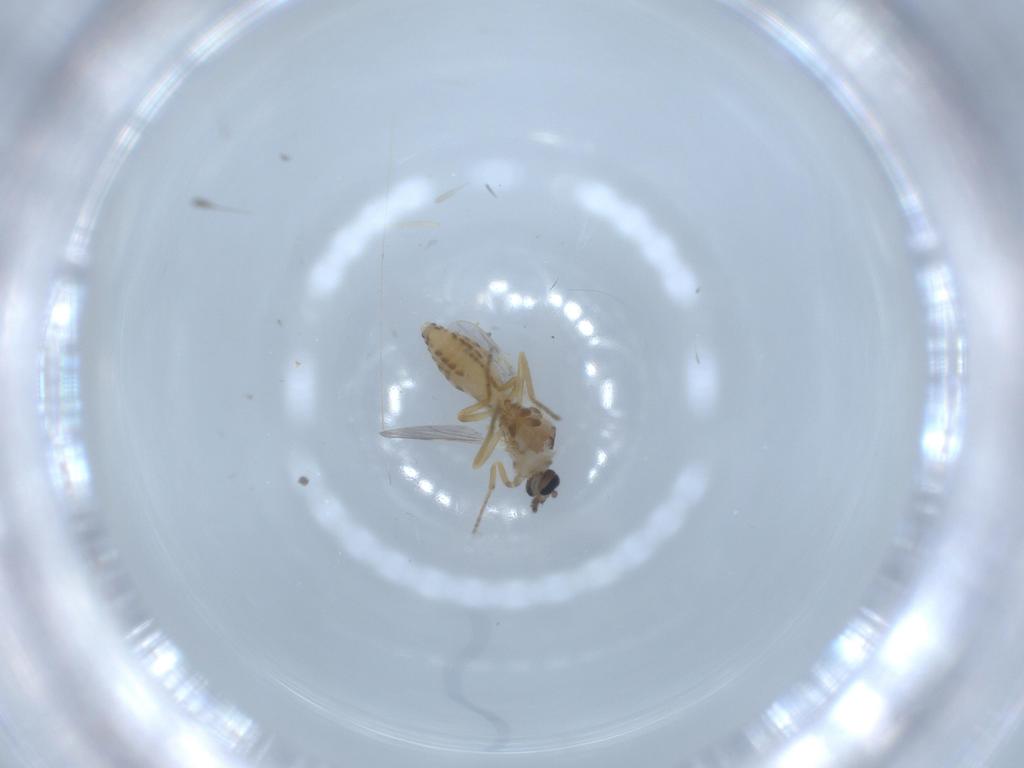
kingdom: Animalia
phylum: Arthropoda
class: Insecta
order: Diptera
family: Ceratopogonidae
